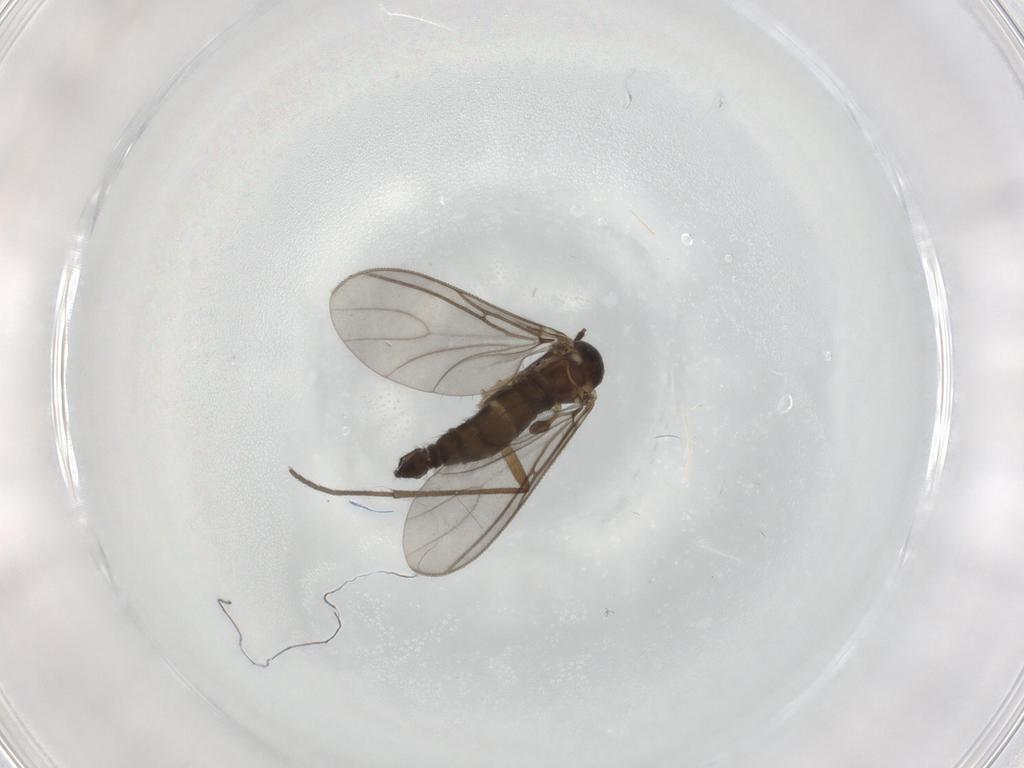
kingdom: Animalia
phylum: Arthropoda
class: Insecta
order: Diptera
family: Sciaridae
